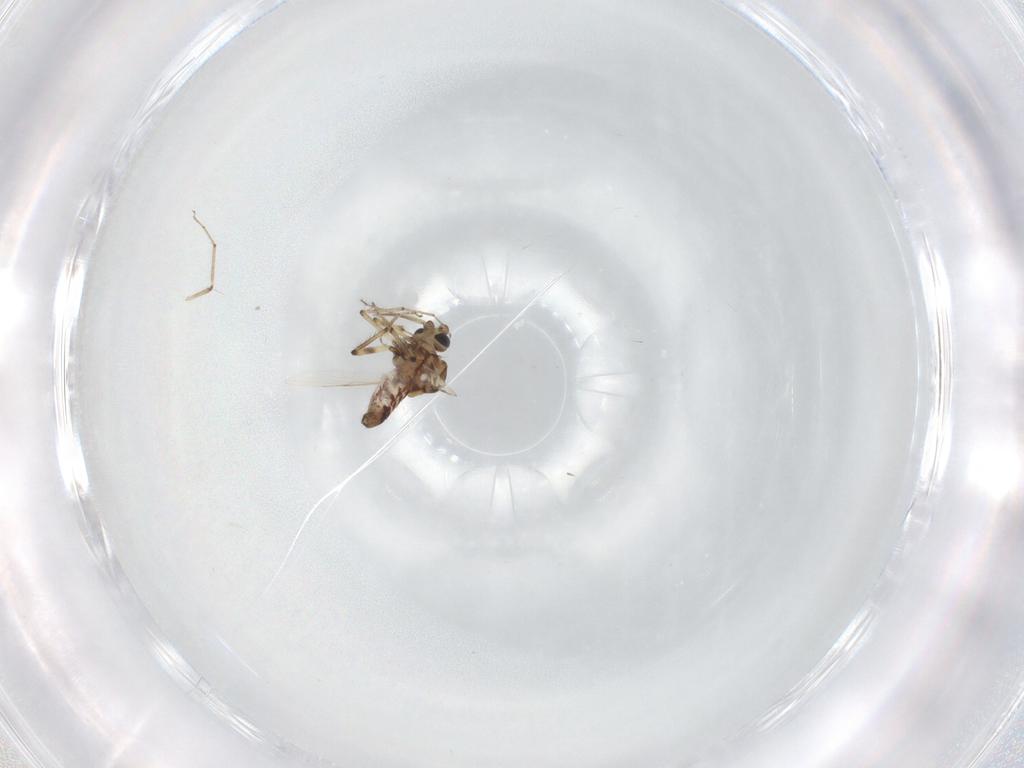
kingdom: Animalia
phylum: Arthropoda
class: Insecta
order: Diptera
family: Ceratopogonidae
